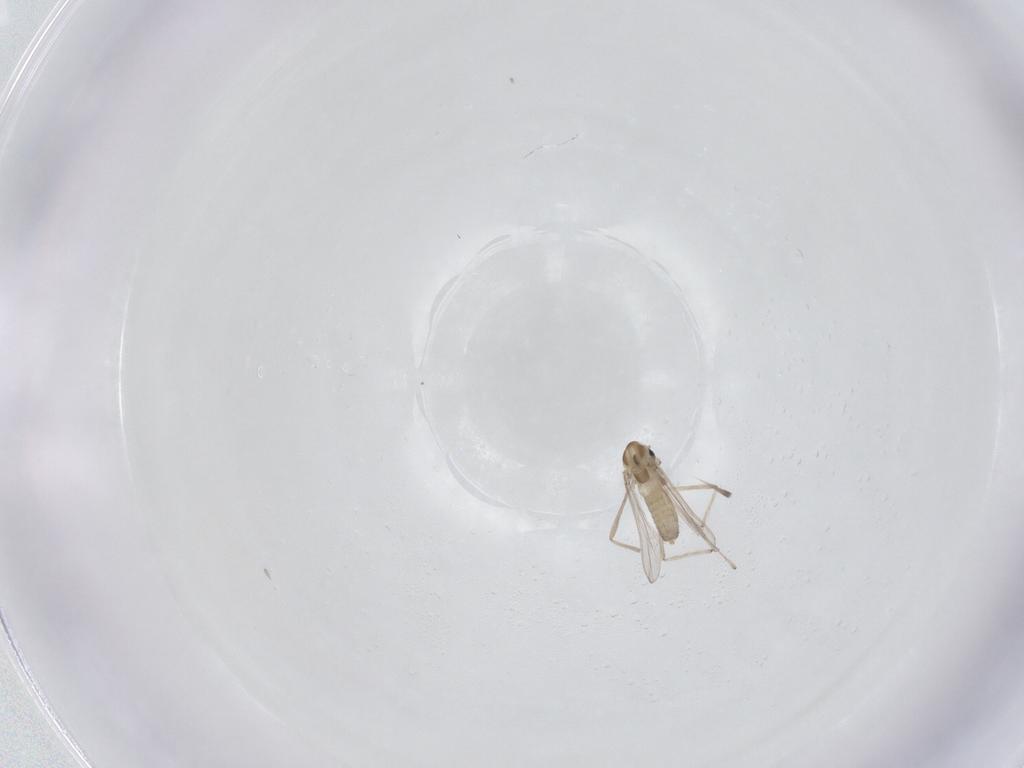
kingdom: Animalia
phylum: Arthropoda
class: Insecta
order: Diptera
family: Chironomidae
